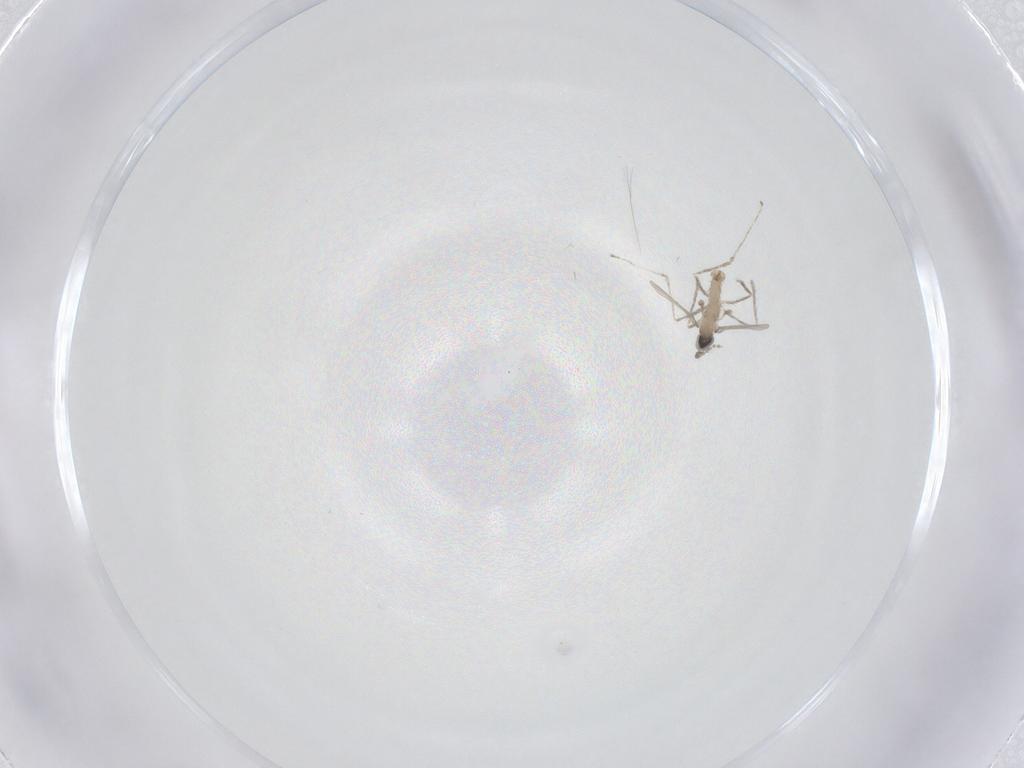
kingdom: Animalia
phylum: Arthropoda
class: Insecta
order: Diptera
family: Cecidomyiidae
